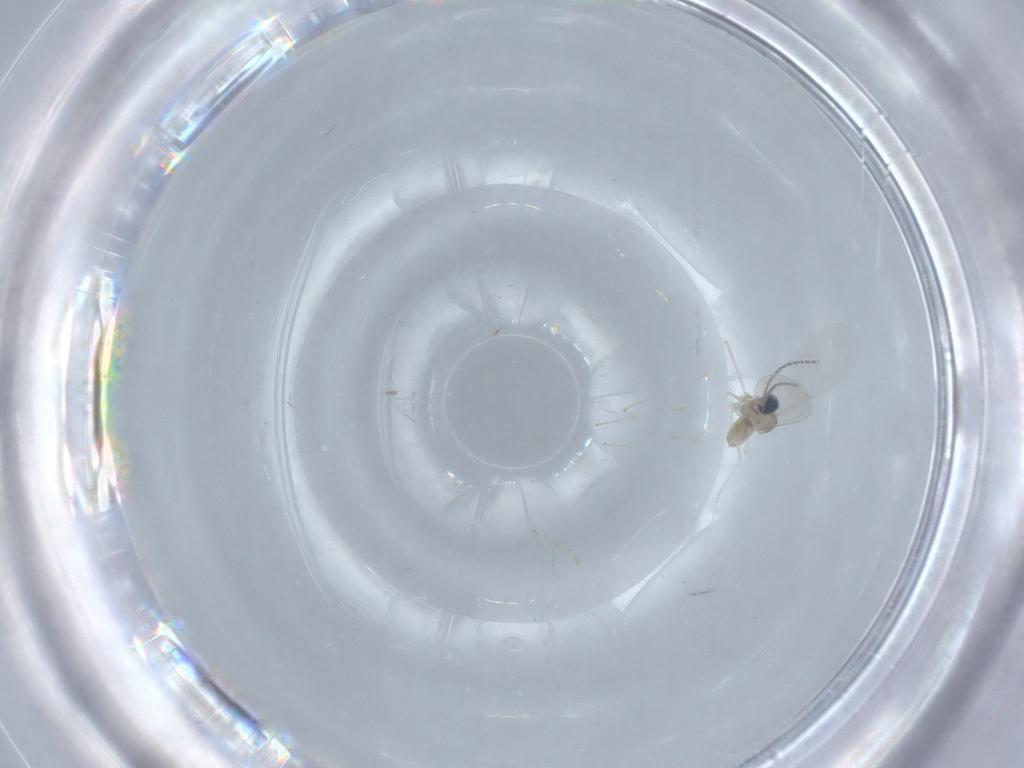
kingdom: Animalia
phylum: Arthropoda
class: Insecta
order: Diptera
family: Cecidomyiidae
